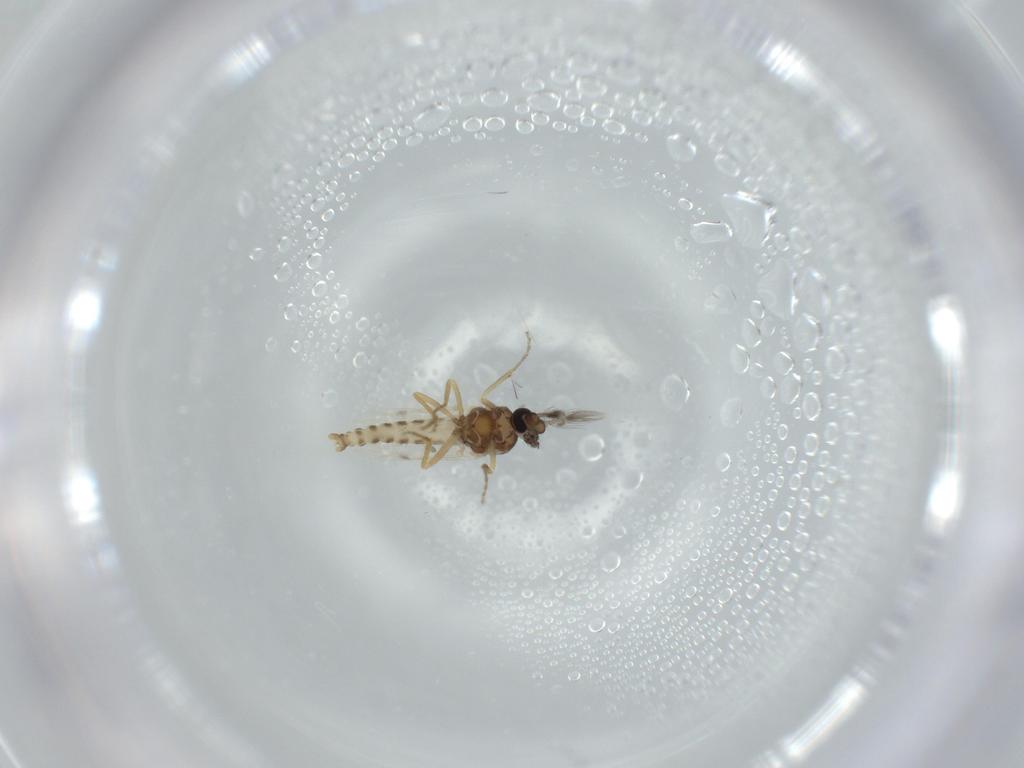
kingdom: Animalia
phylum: Arthropoda
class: Insecta
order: Diptera
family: Ceratopogonidae
